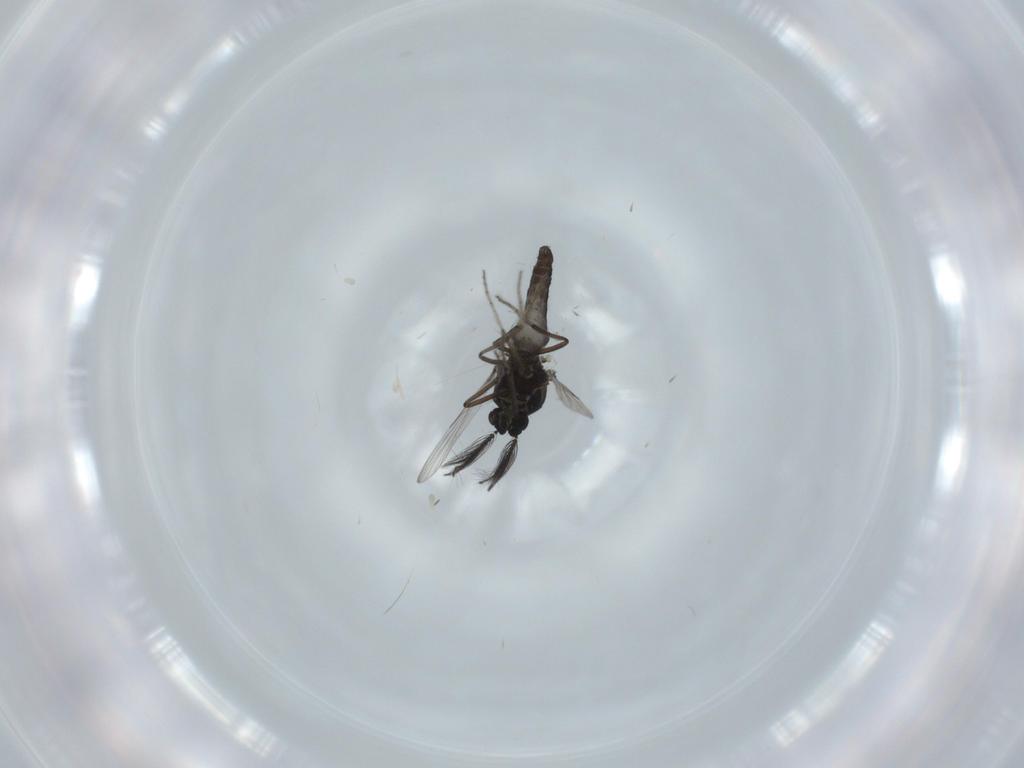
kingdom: Animalia
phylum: Arthropoda
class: Insecta
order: Diptera
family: Ceratopogonidae
